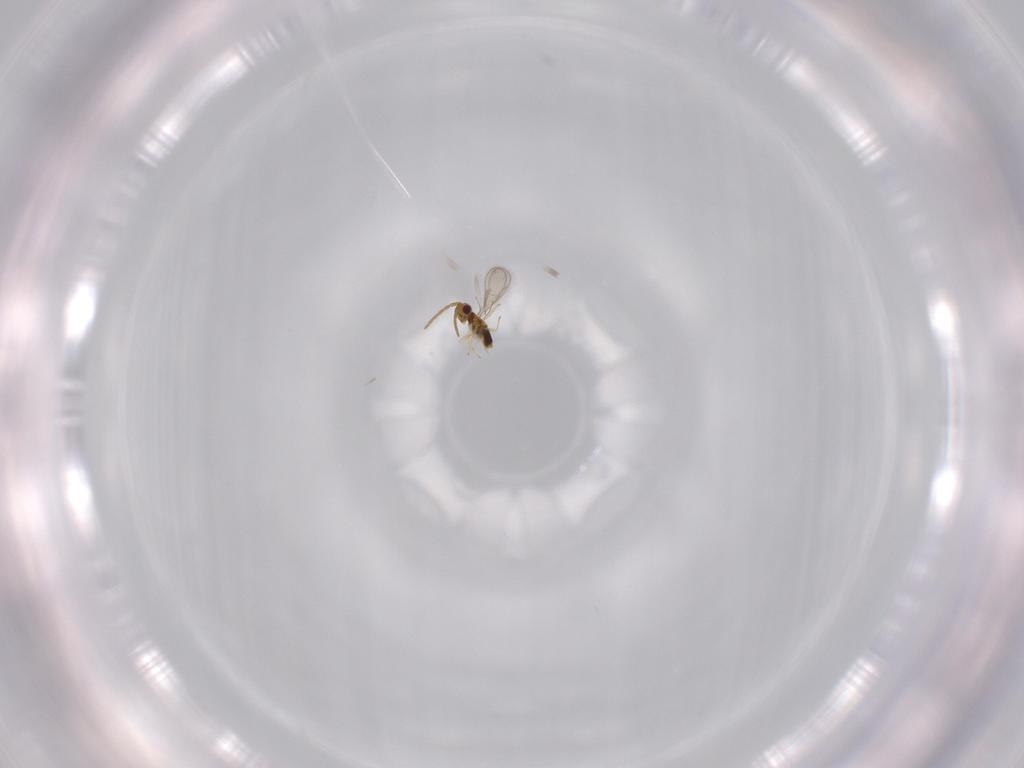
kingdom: Animalia
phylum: Arthropoda
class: Insecta
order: Hymenoptera
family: Aphelinidae
